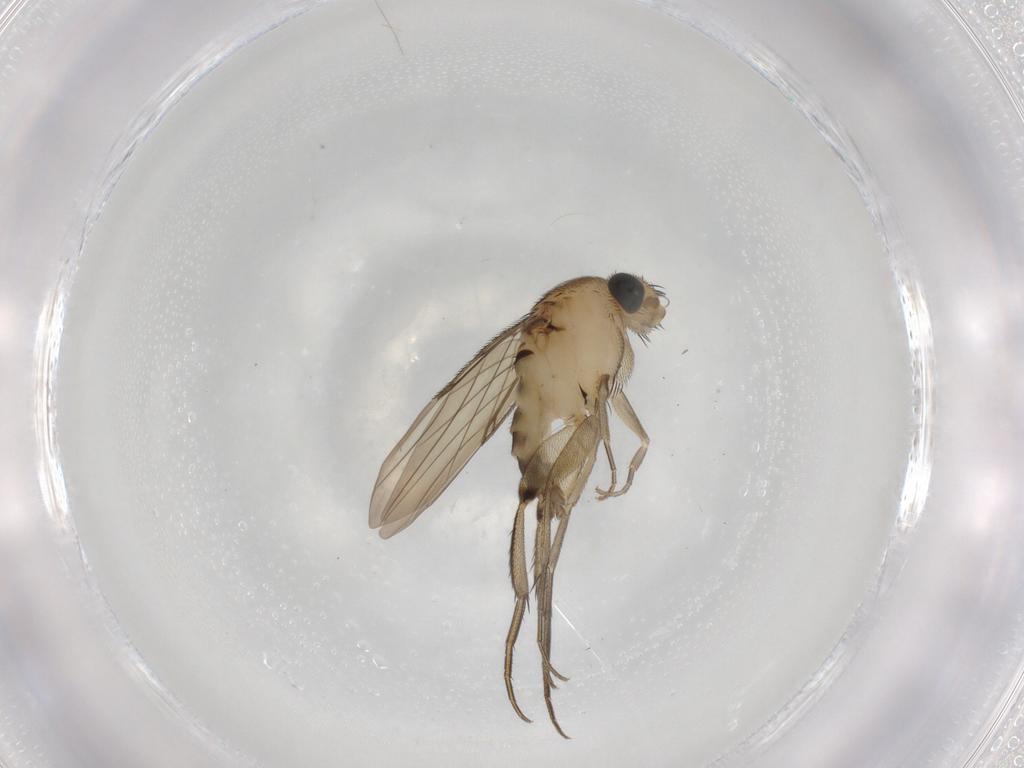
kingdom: Animalia
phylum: Arthropoda
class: Insecta
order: Diptera
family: Phoridae
